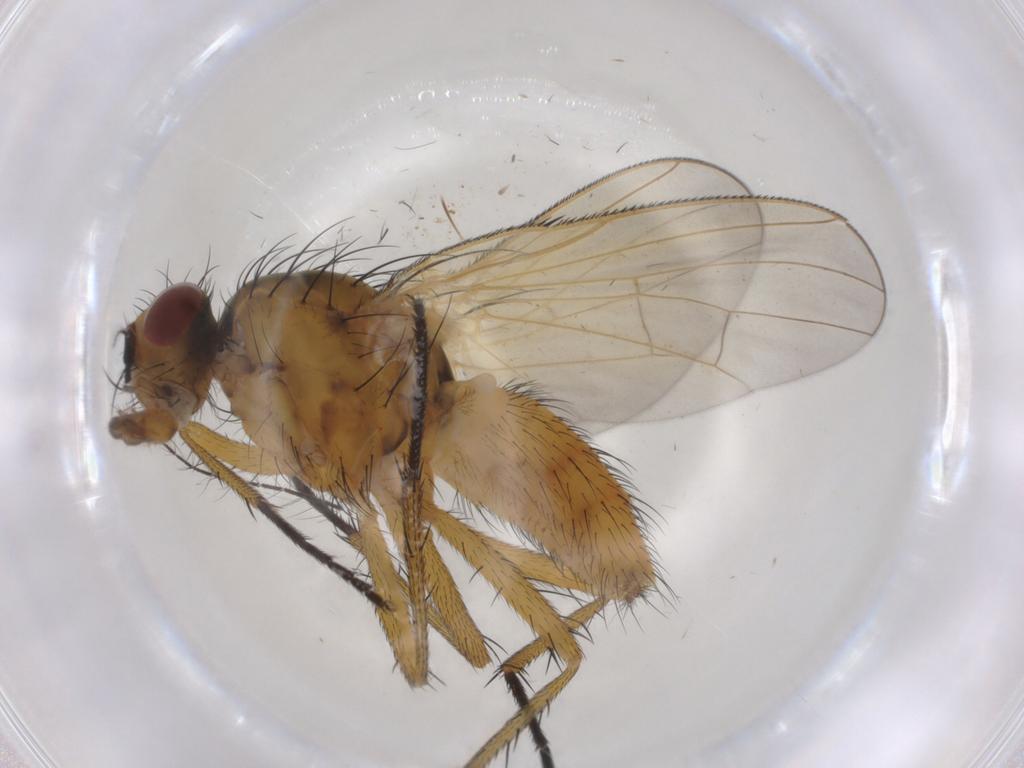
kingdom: Animalia
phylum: Arthropoda
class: Insecta
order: Diptera
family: Anthomyiidae
